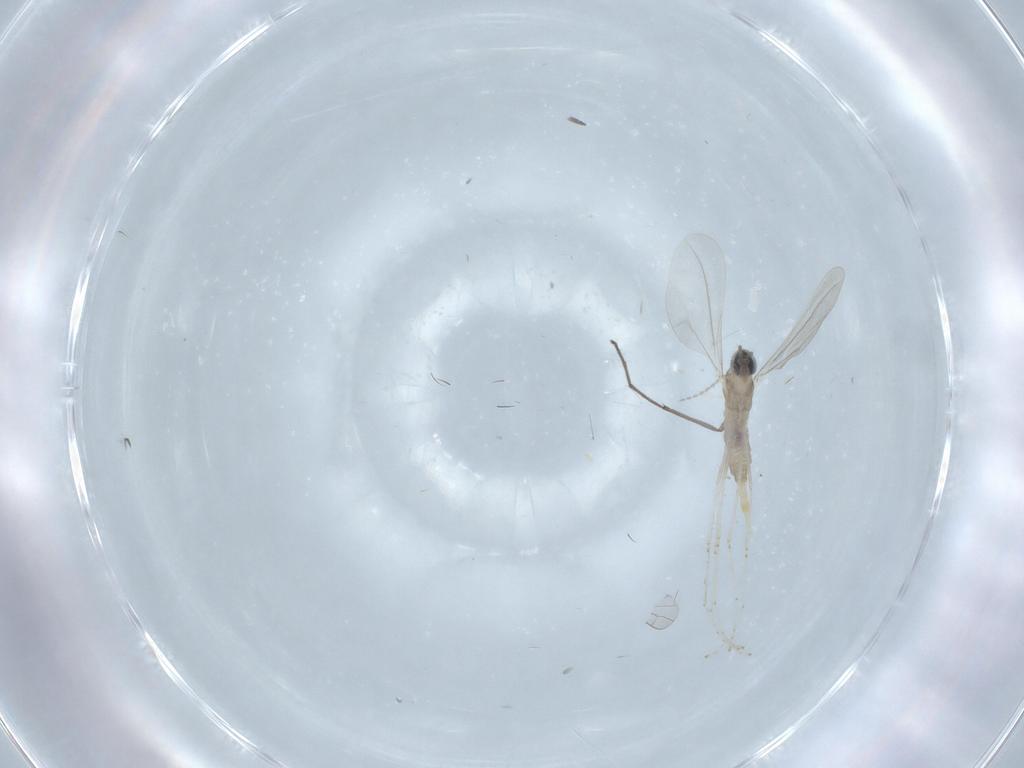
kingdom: Animalia
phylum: Arthropoda
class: Insecta
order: Diptera
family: Cecidomyiidae
